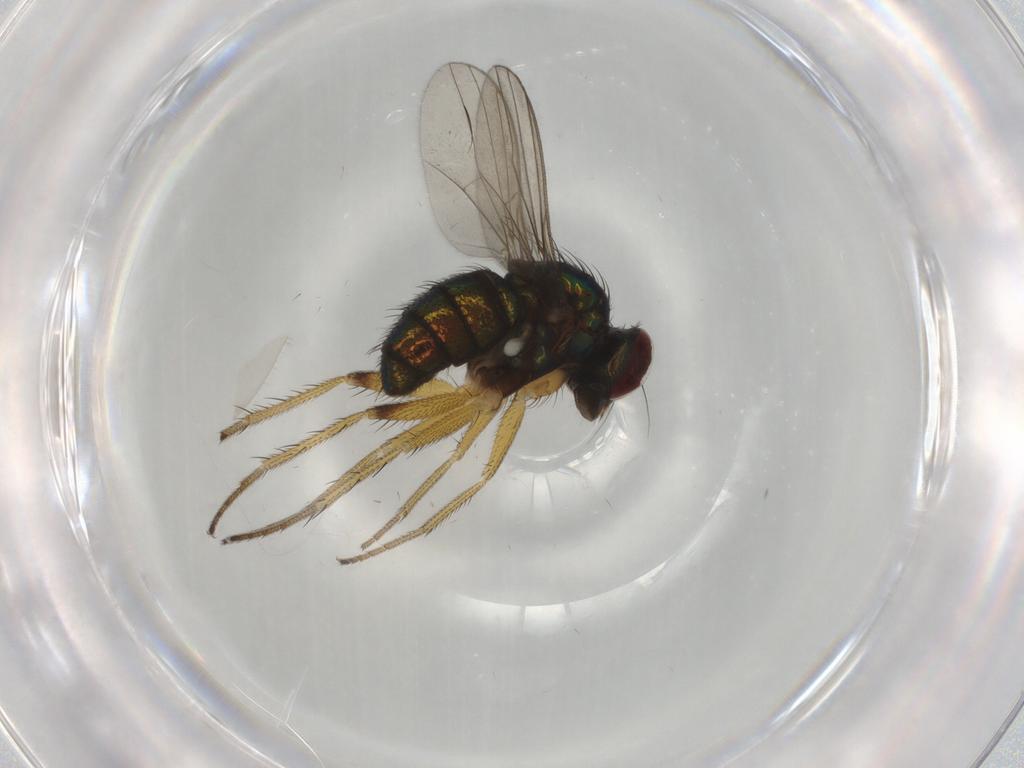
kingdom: Animalia
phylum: Arthropoda
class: Insecta
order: Diptera
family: Dolichopodidae
